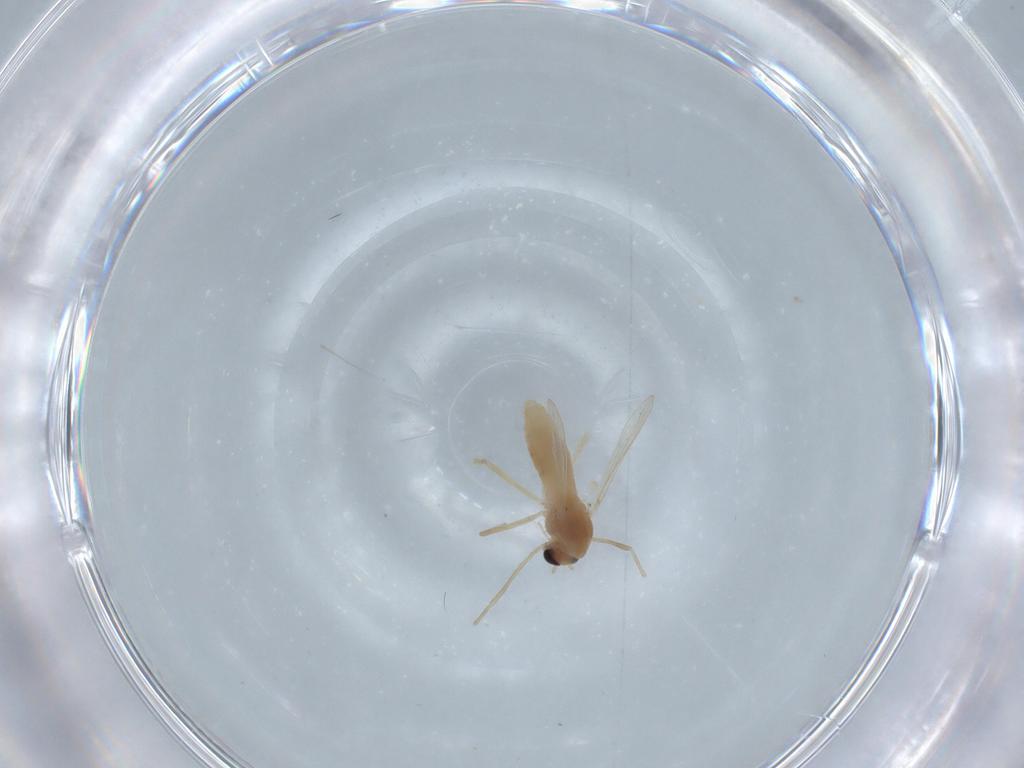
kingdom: Animalia
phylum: Arthropoda
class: Insecta
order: Diptera
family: Chironomidae
